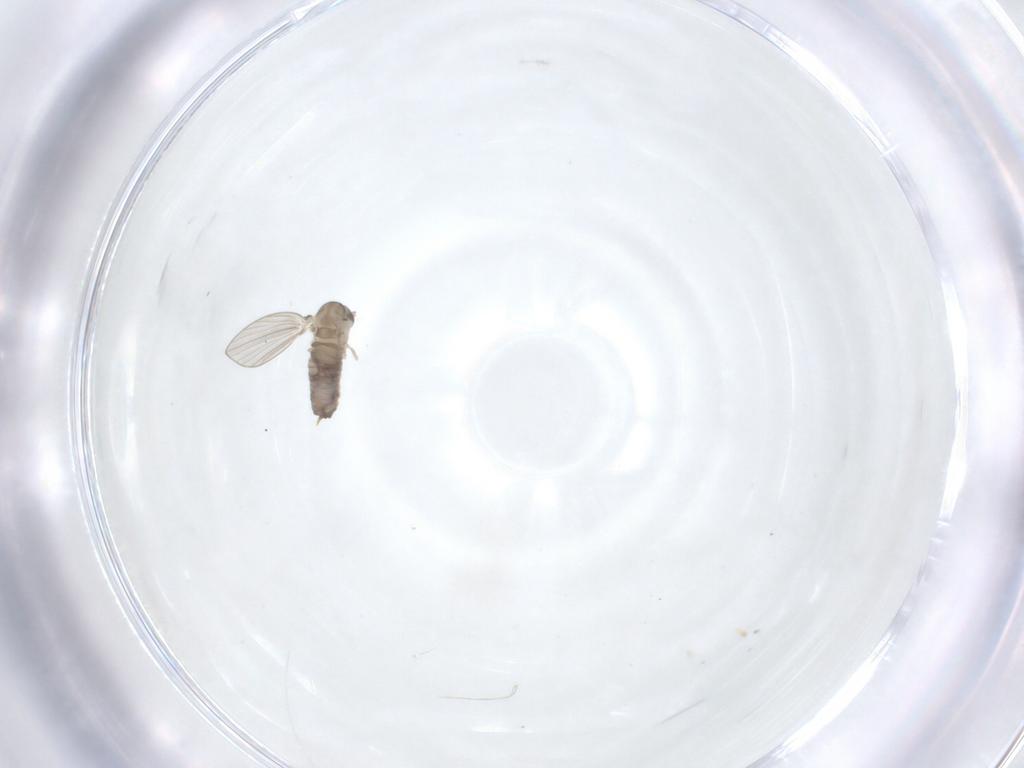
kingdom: Animalia
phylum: Arthropoda
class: Insecta
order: Diptera
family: Psychodidae
